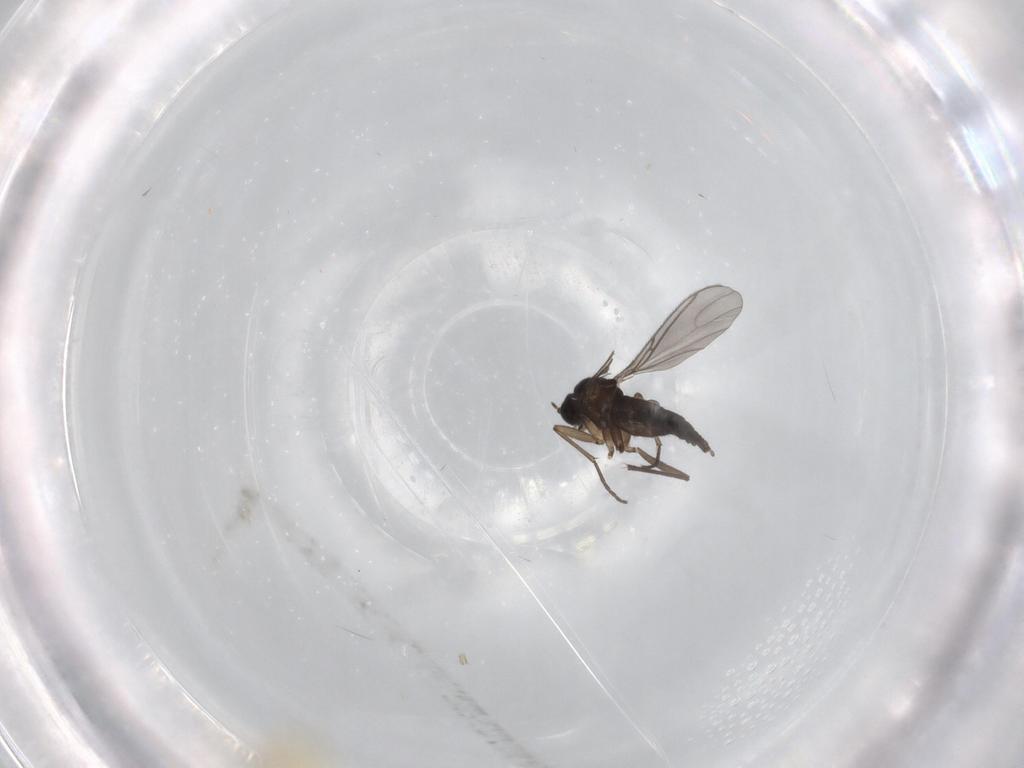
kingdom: Animalia
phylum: Arthropoda
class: Insecta
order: Diptera
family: Cecidomyiidae
